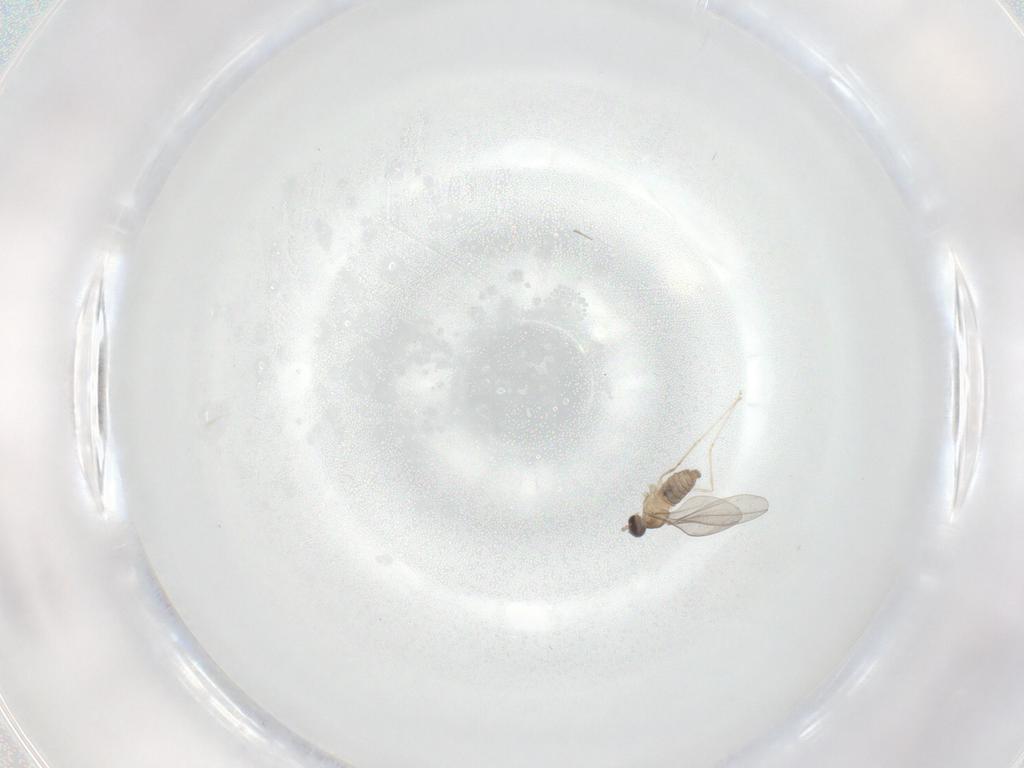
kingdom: Animalia
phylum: Arthropoda
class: Insecta
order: Diptera
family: Cecidomyiidae
